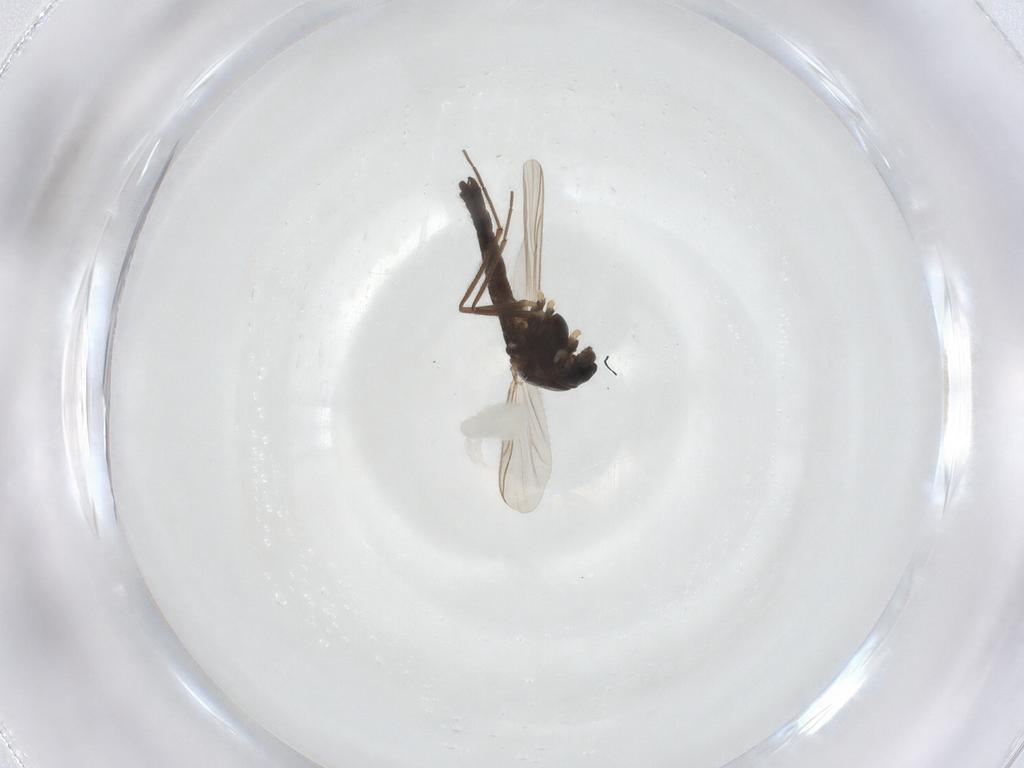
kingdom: Animalia
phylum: Arthropoda
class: Insecta
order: Diptera
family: Chironomidae
